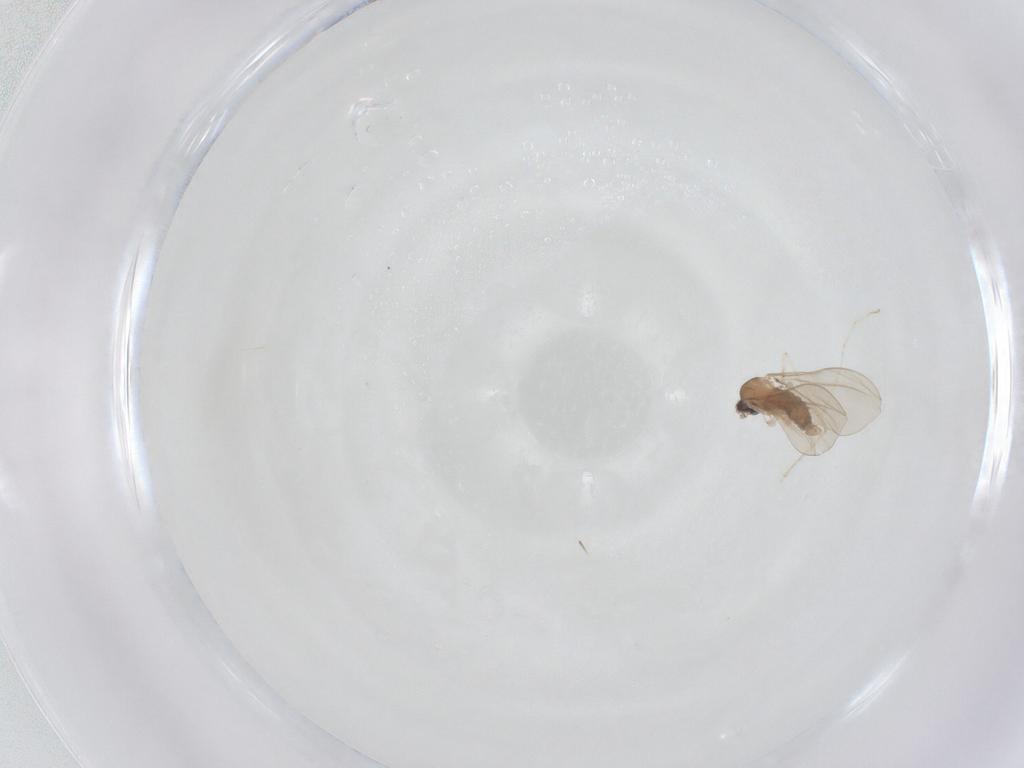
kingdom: Animalia
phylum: Arthropoda
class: Insecta
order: Diptera
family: Cecidomyiidae
